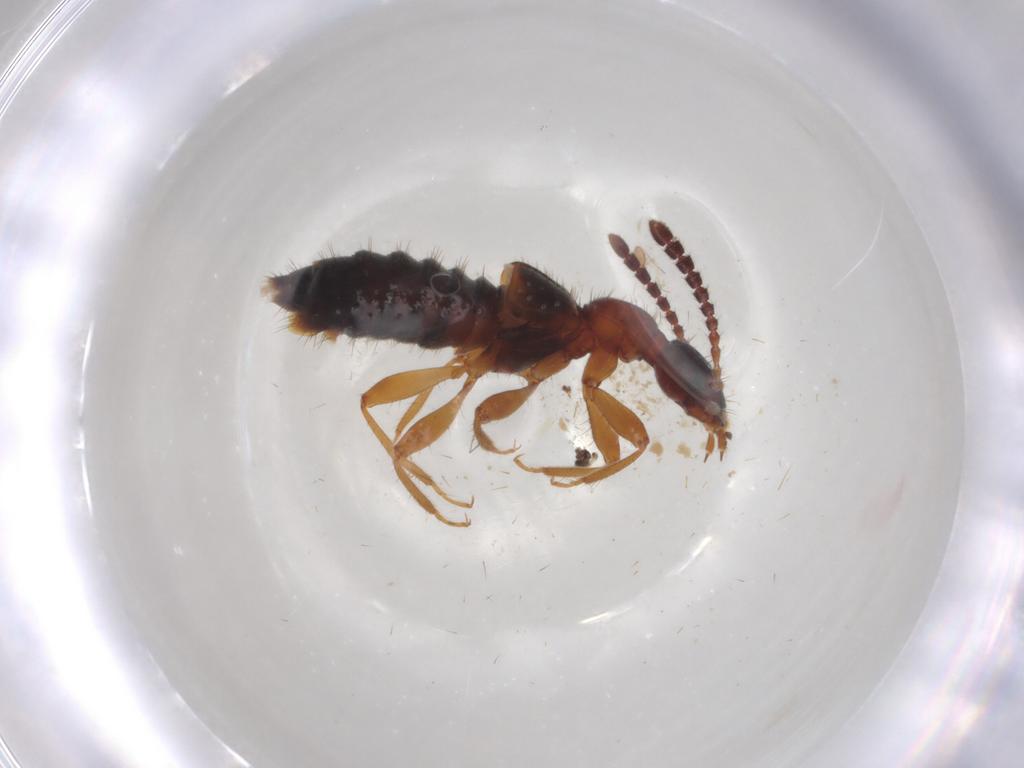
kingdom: Animalia
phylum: Arthropoda
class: Insecta
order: Coleoptera
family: Staphylinidae
